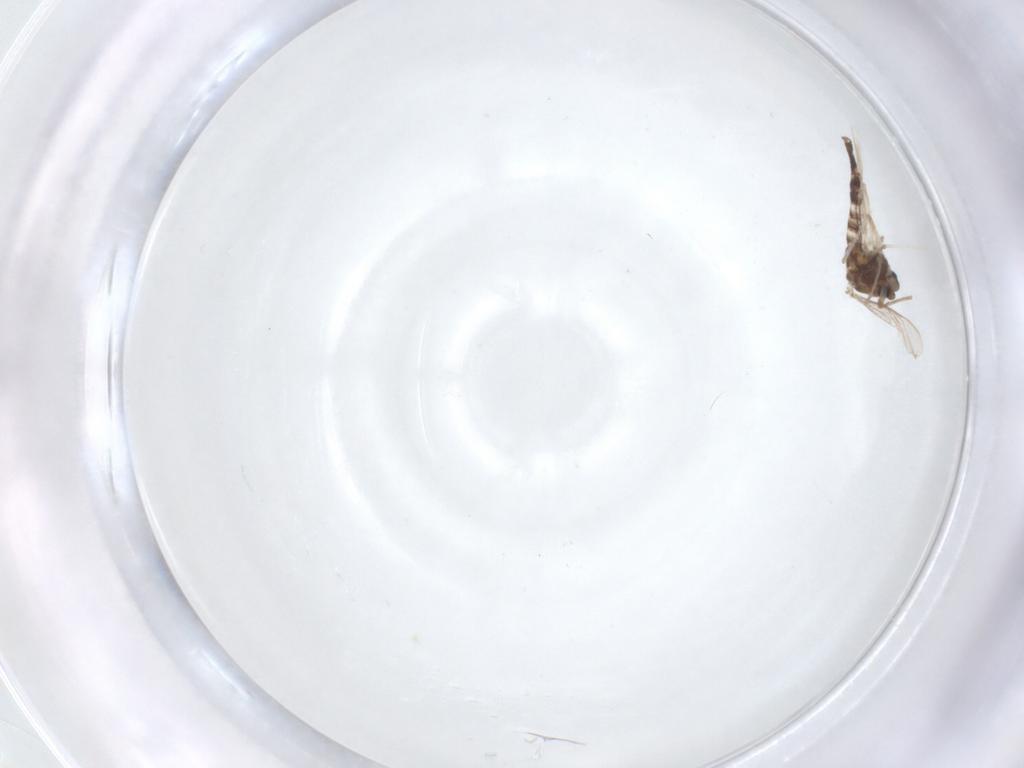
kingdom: Animalia
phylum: Arthropoda
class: Insecta
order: Diptera
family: Chironomidae
